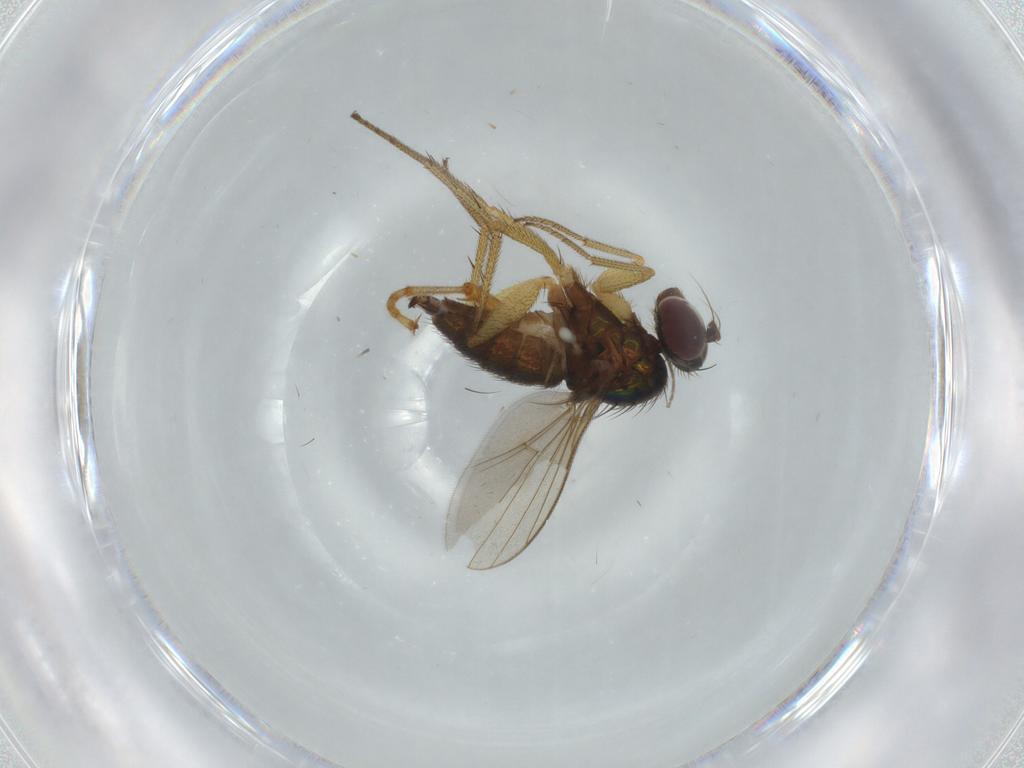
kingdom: Animalia
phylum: Arthropoda
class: Insecta
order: Diptera
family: Dolichopodidae
